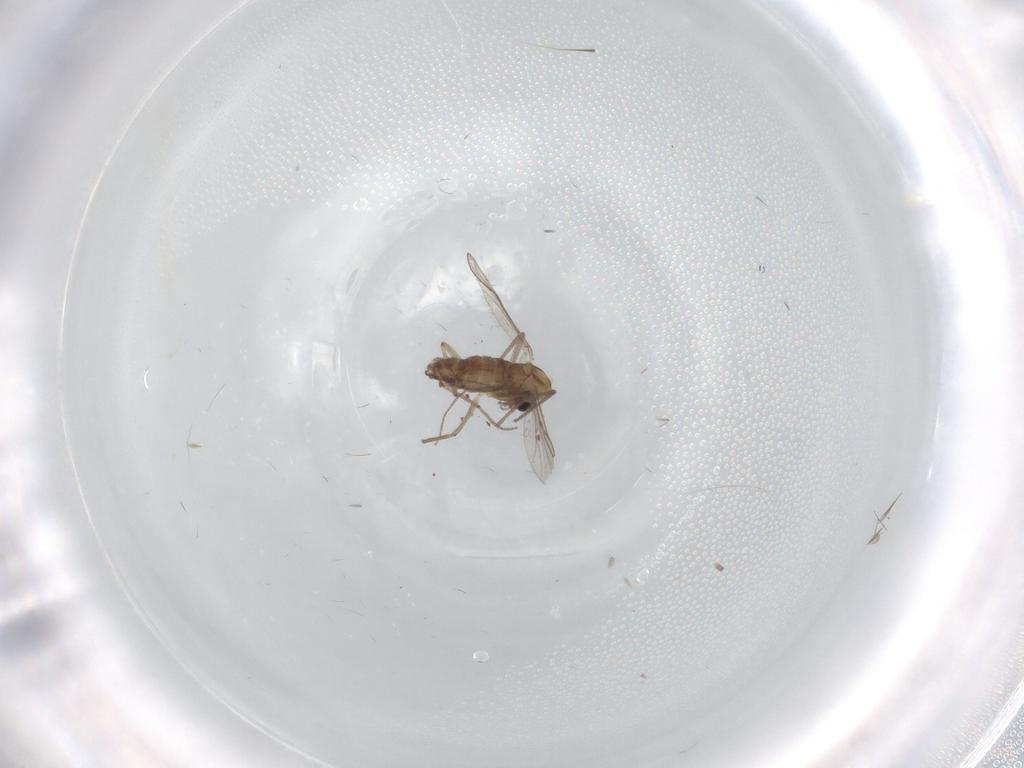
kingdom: Animalia
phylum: Arthropoda
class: Insecta
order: Diptera
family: Chironomidae
